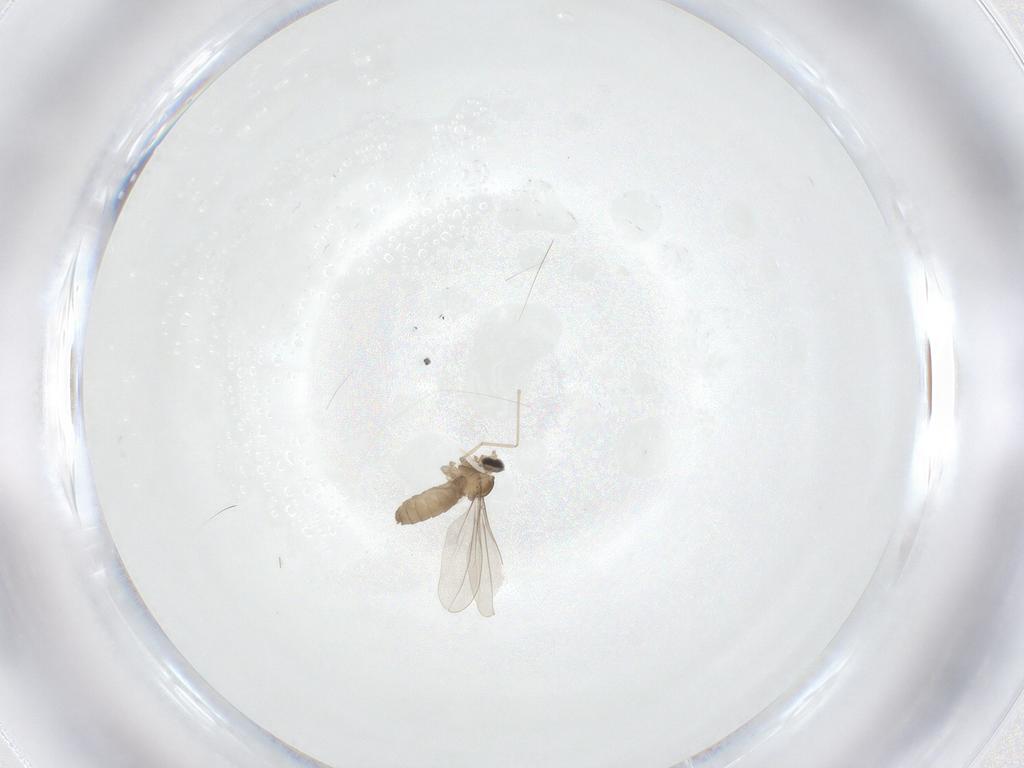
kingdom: Animalia
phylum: Arthropoda
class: Insecta
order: Diptera
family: Cecidomyiidae
